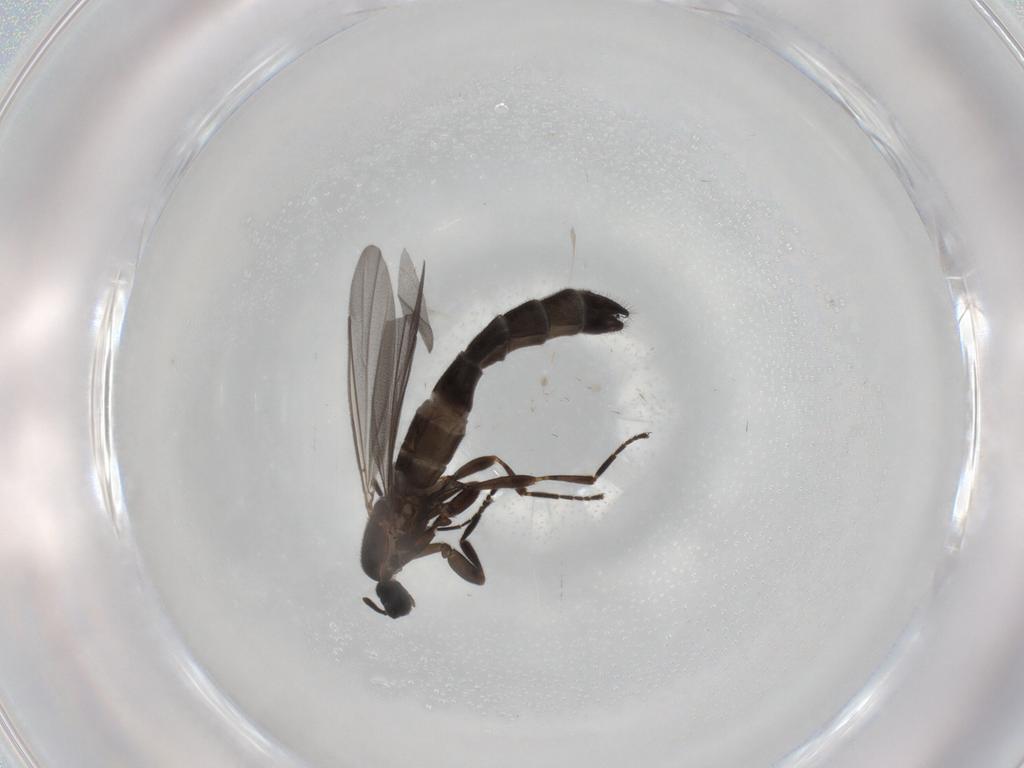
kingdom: Animalia
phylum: Arthropoda
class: Insecta
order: Diptera
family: Scatopsidae
